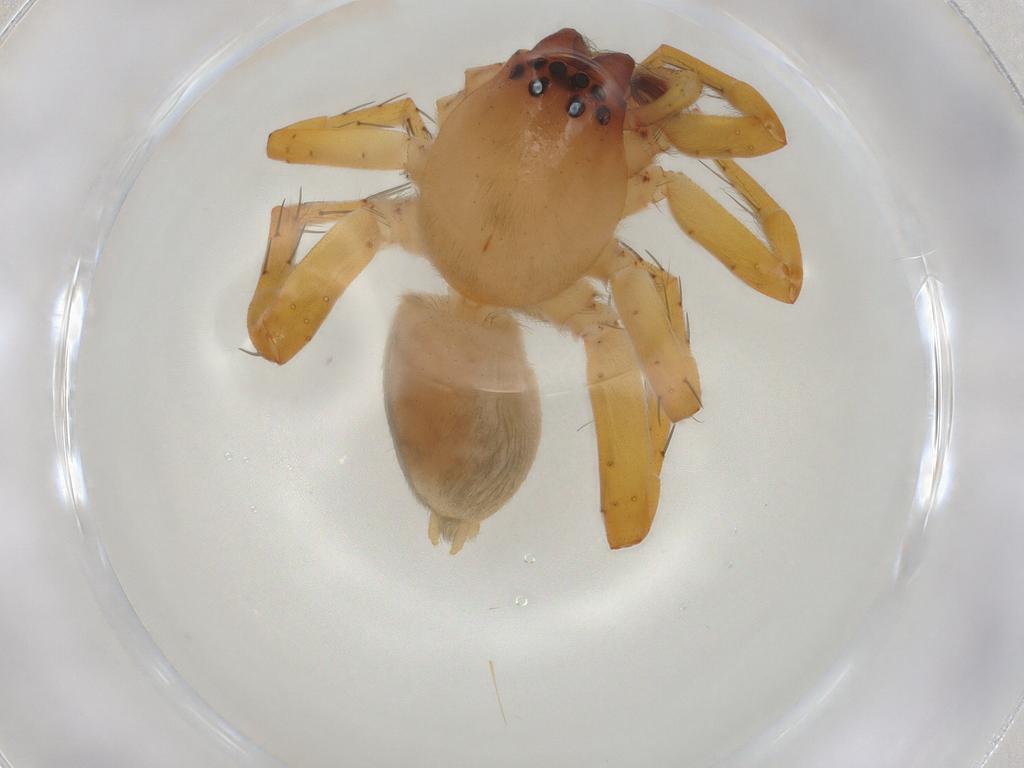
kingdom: Animalia
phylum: Arthropoda
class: Arachnida
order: Araneae
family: Clubionidae
